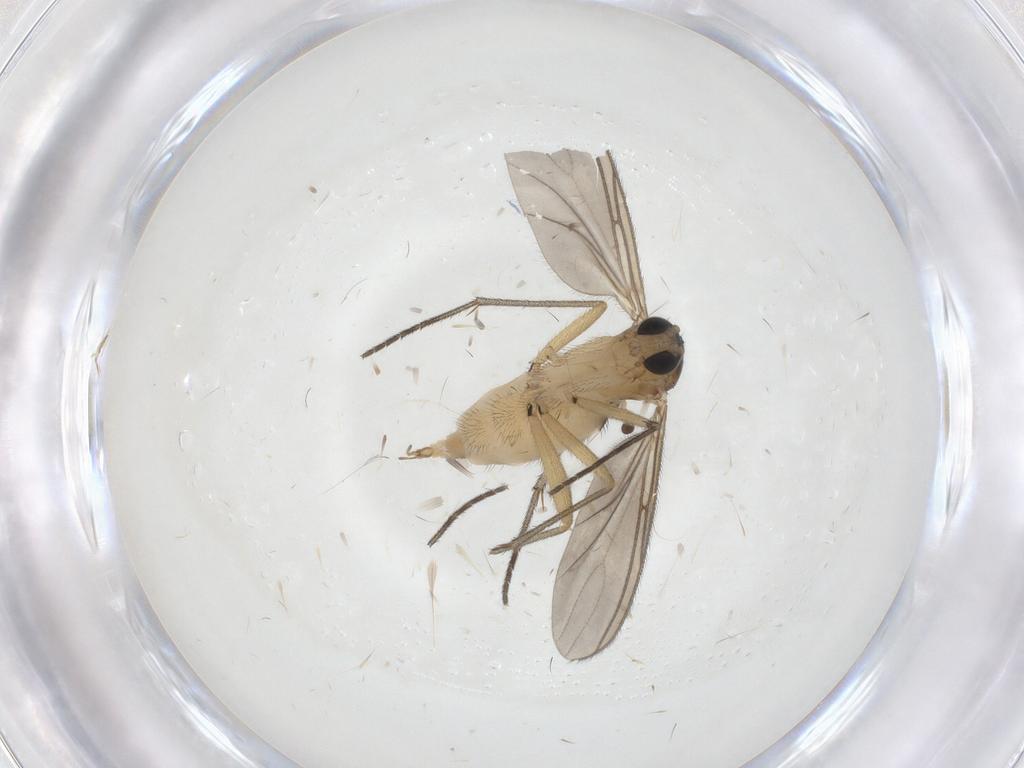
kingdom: Animalia
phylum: Arthropoda
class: Insecta
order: Diptera
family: Sciaridae
